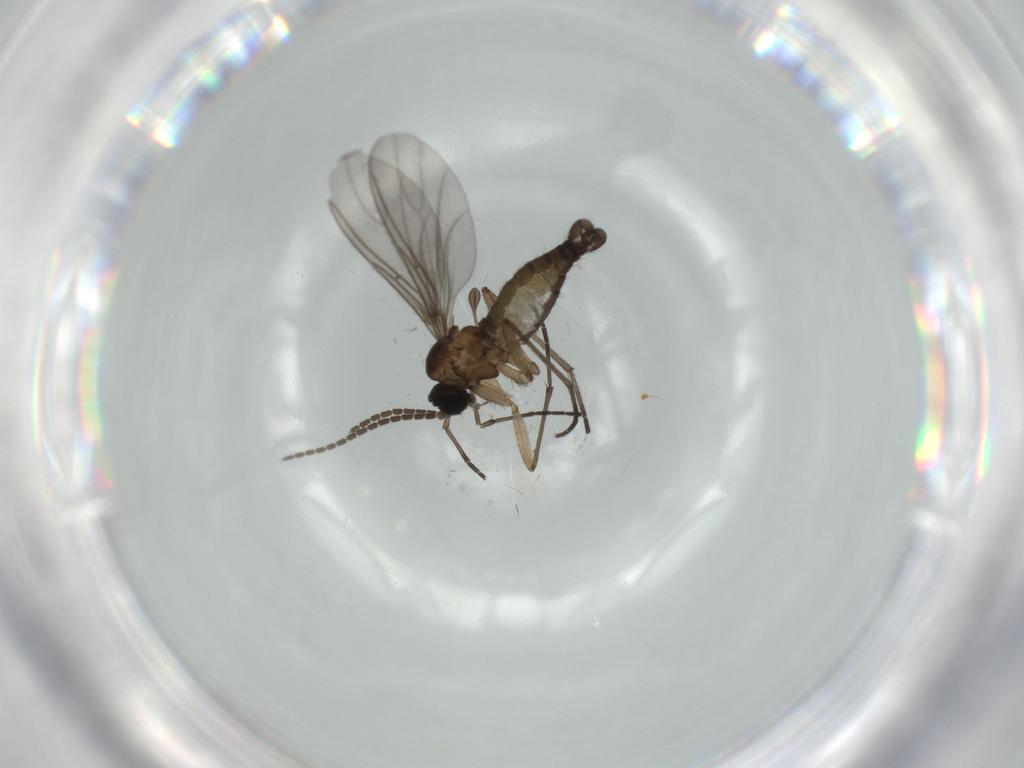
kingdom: Animalia
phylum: Arthropoda
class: Insecta
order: Diptera
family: Sciaridae
